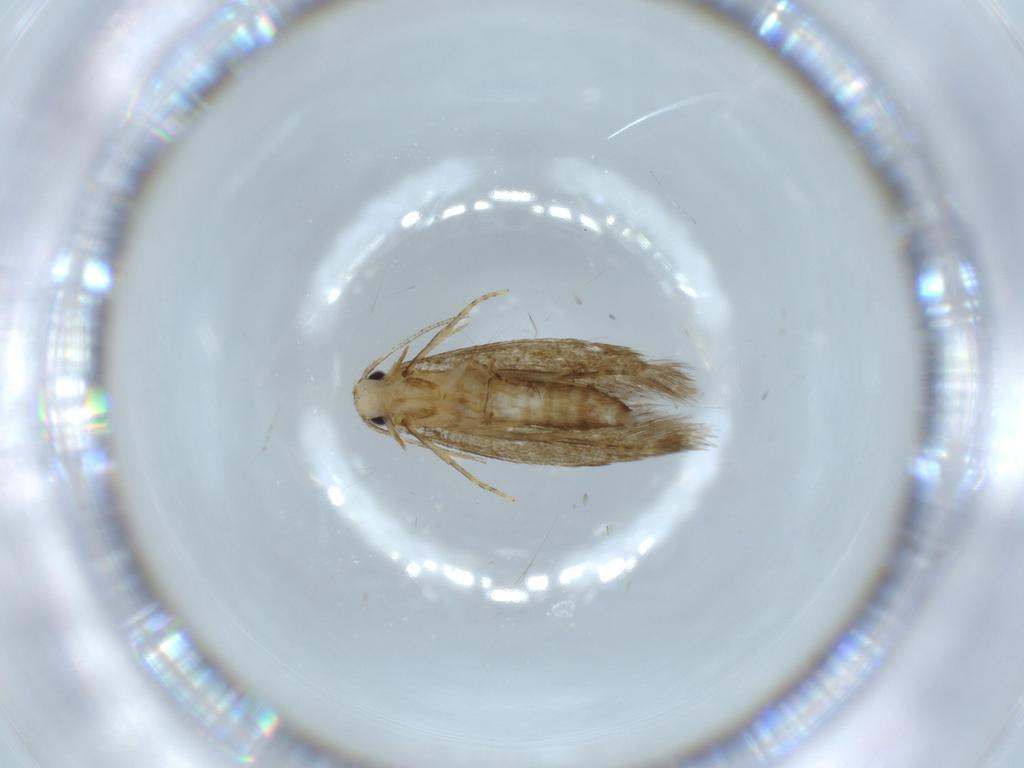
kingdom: Animalia
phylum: Arthropoda
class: Insecta
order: Lepidoptera
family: Tineidae
